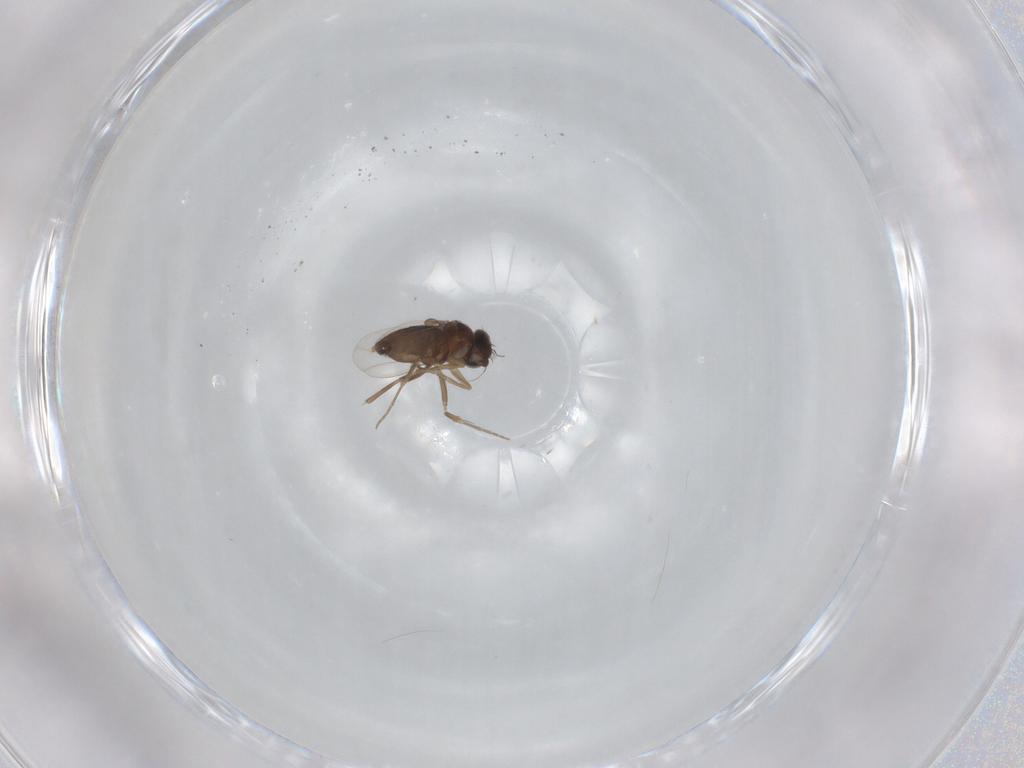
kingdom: Animalia
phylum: Arthropoda
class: Insecta
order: Diptera
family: Phoridae
